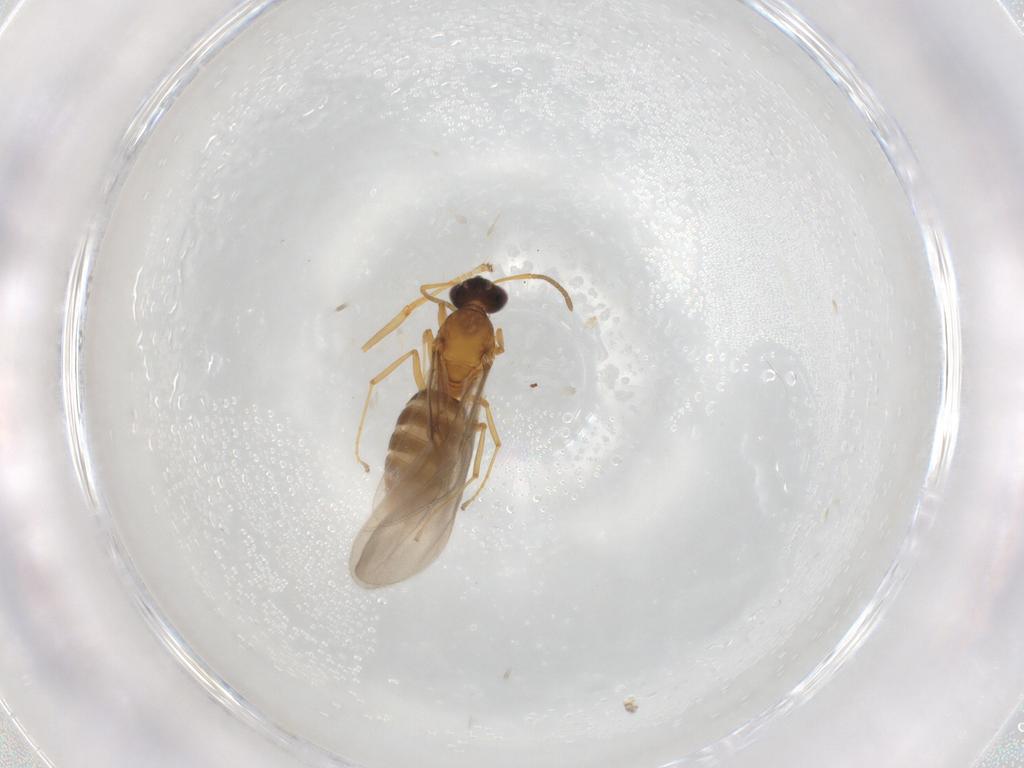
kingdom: Animalia
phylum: Arthropoda
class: Insecta
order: Hymenoptera
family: Formicidae
